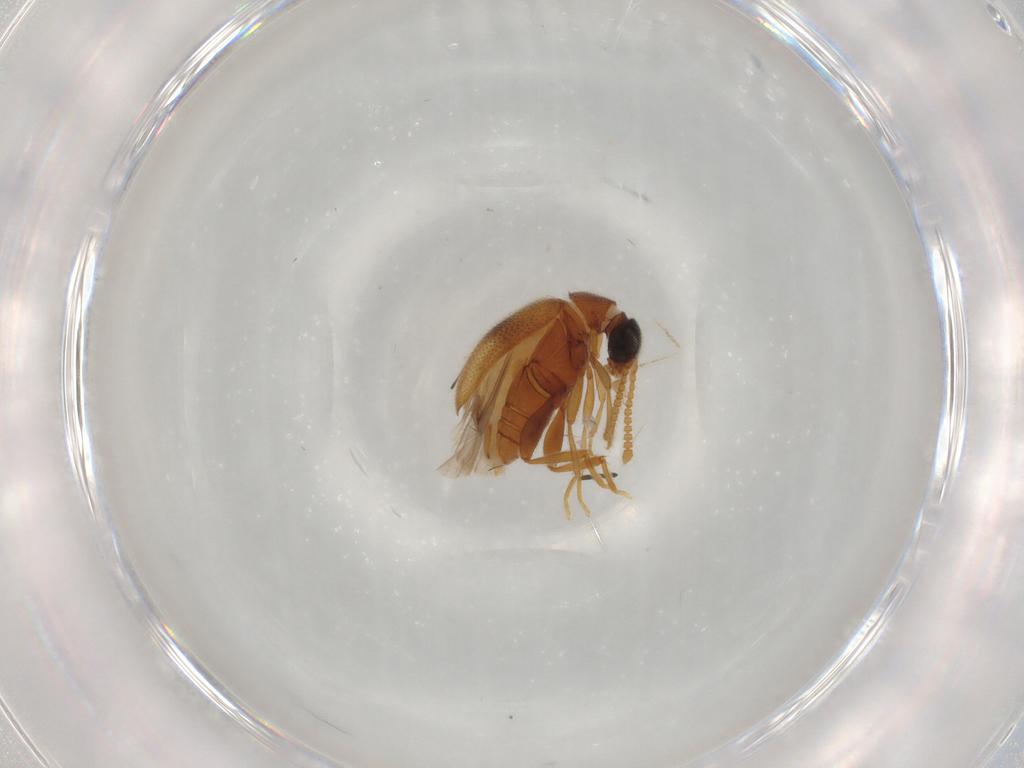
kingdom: Animalia
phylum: Arthropoda
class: Insecta
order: Coleoptera
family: Aderidae
